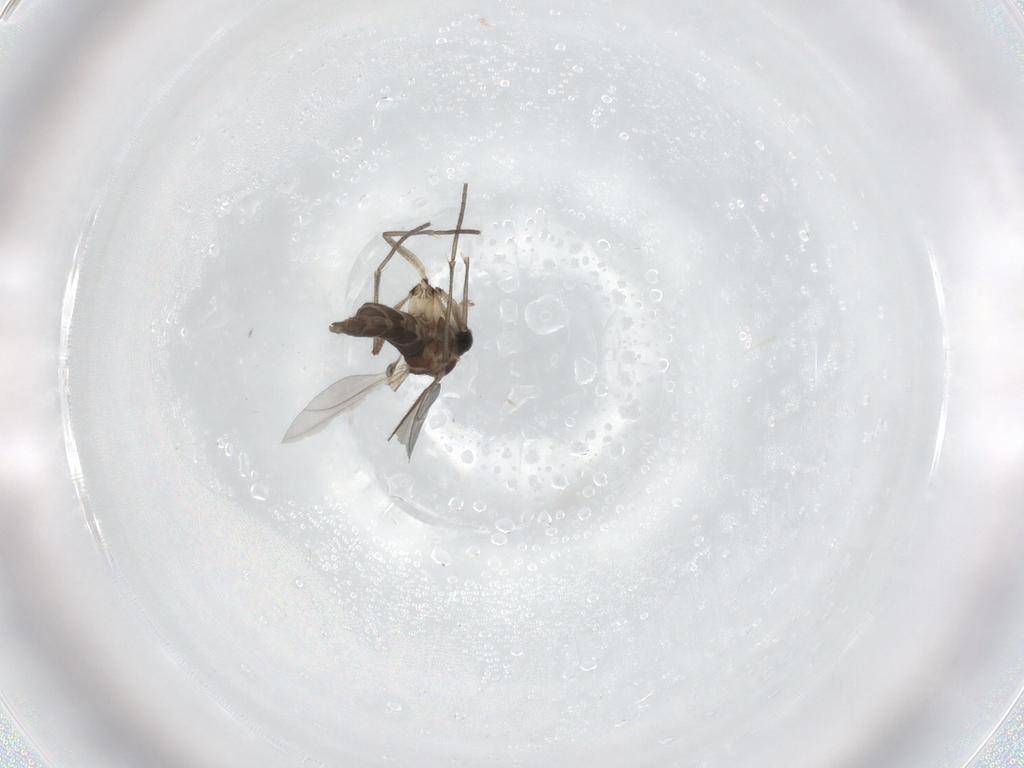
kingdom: Animalia
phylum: Arthropoda
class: Insecta
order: Diptera
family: Sciaridae
